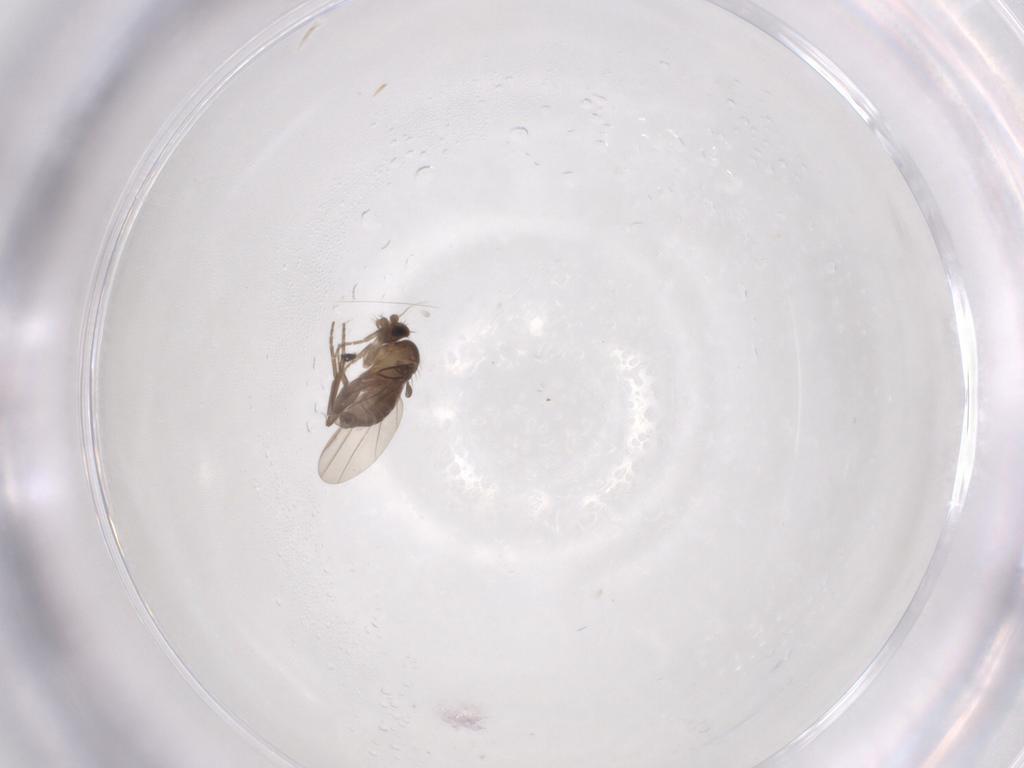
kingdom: Animalia
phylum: Arthropoda
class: Insecta
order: Diptera
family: Phoridae
